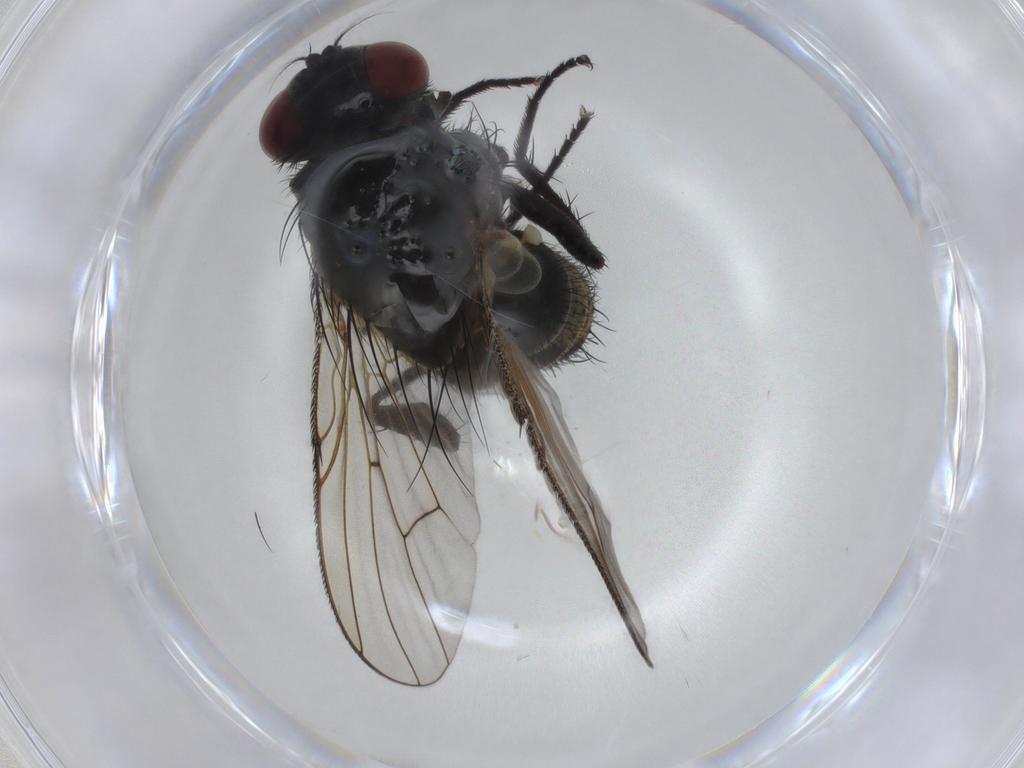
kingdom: Animalia
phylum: Arthropoda
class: Insecta
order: Diptera
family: Muscidae
